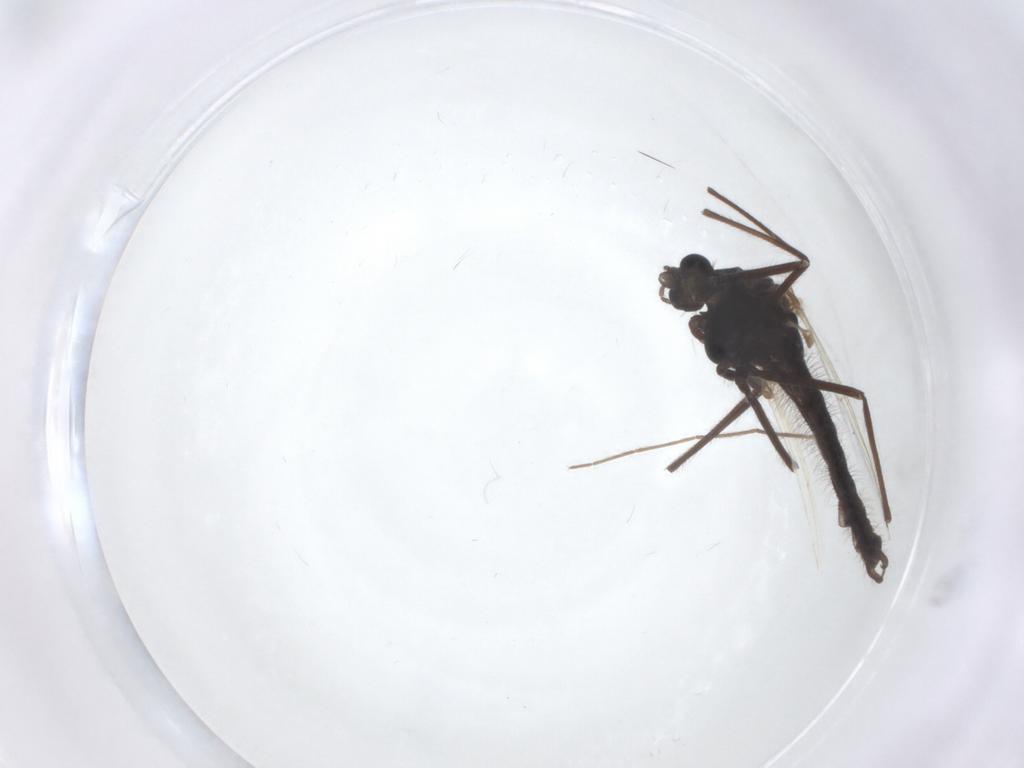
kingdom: Animalia
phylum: Arthropoda
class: Insecta
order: Diptera
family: Chironomidae
